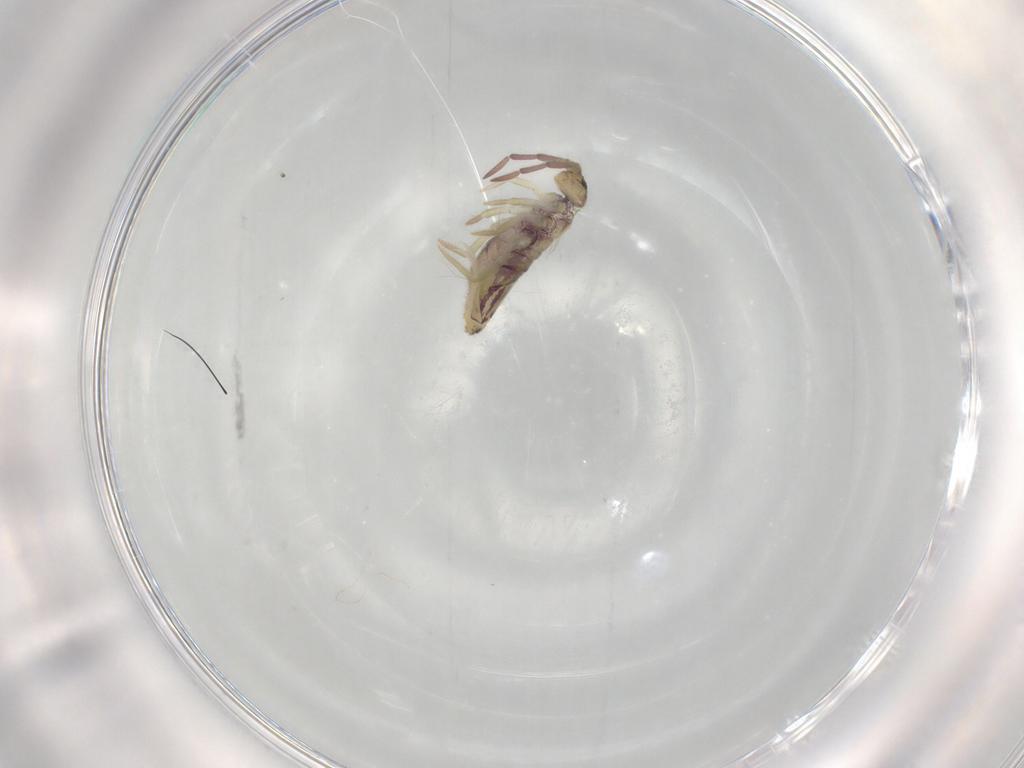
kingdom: Animalia
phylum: Arthropoda
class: Collembola
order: Entomobryomorpha
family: Entomobryidae
